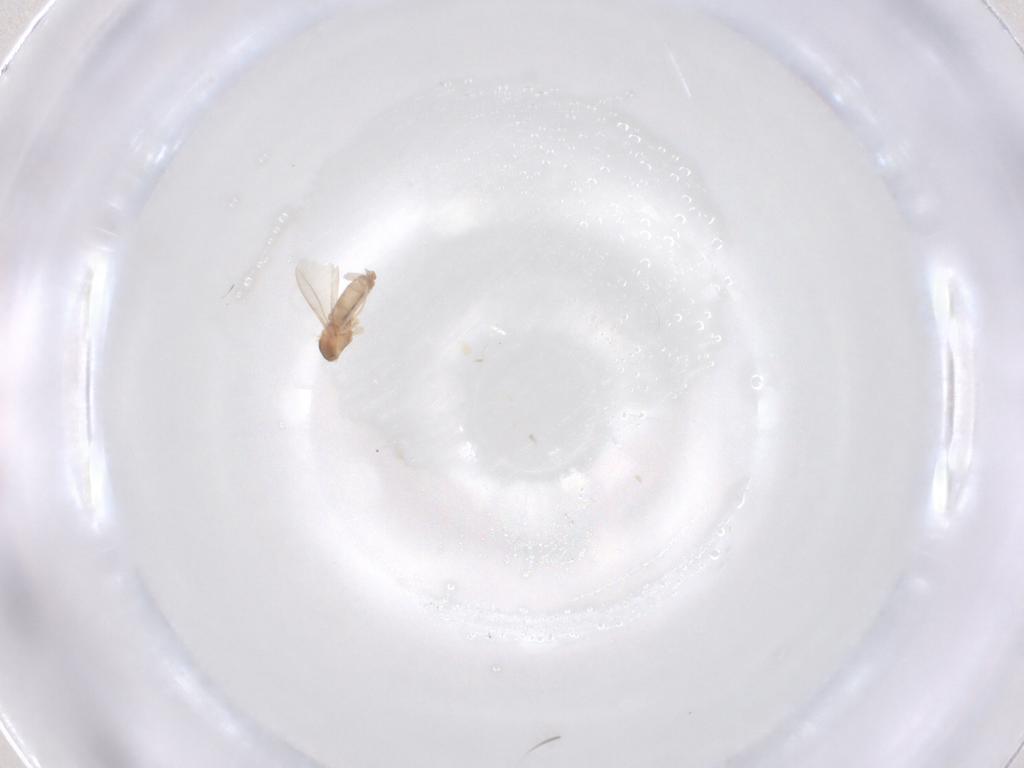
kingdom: Animalia
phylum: Arthropoda
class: Insecta
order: Diptera
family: Cecidomyiidae
